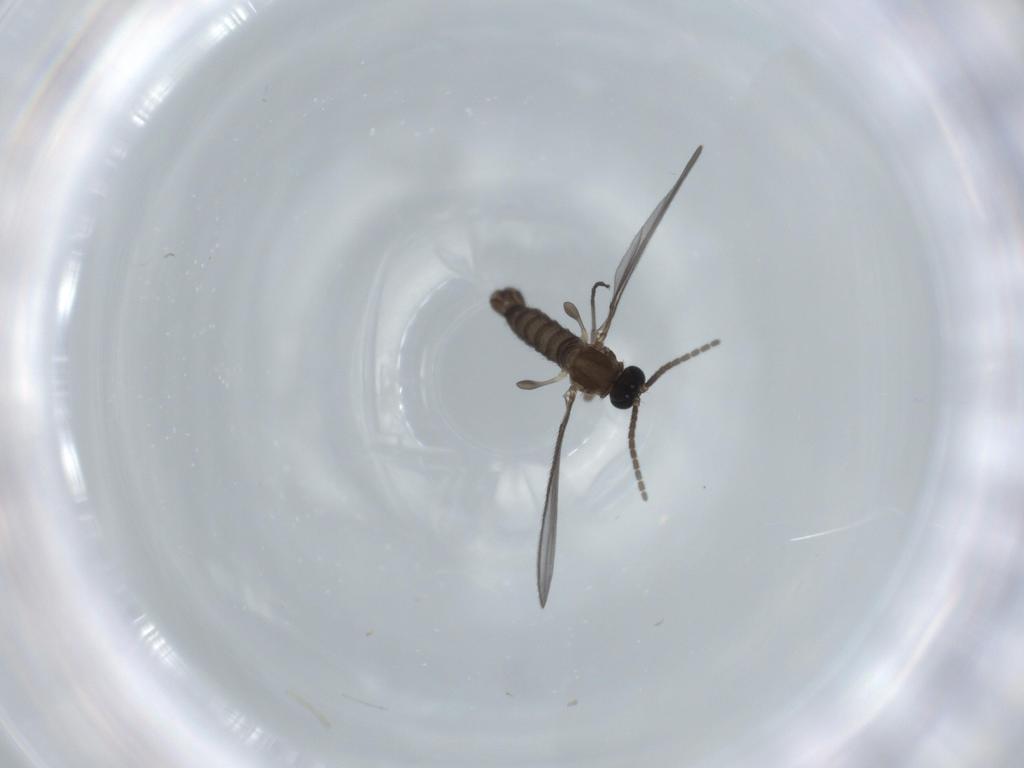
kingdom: Animalia
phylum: Arthropoda
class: Insecta
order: Diptera
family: Sciaridae
